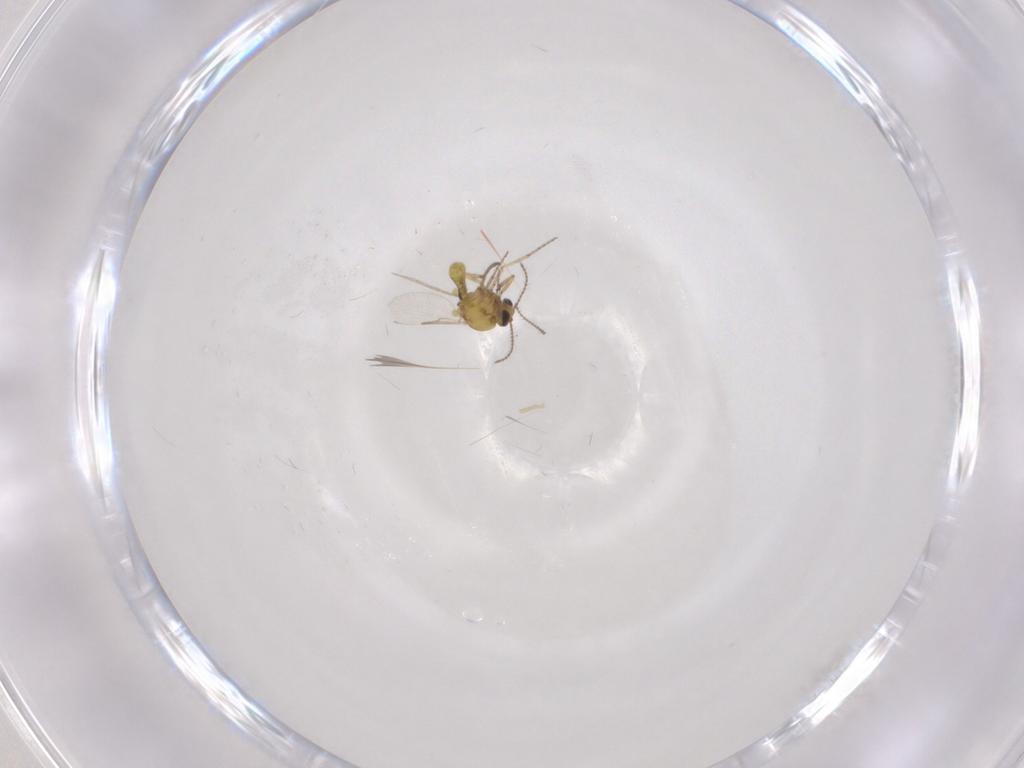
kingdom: Animalia
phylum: Arthropoda
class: Insecta
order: Diptera
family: Ceratopogonidae
